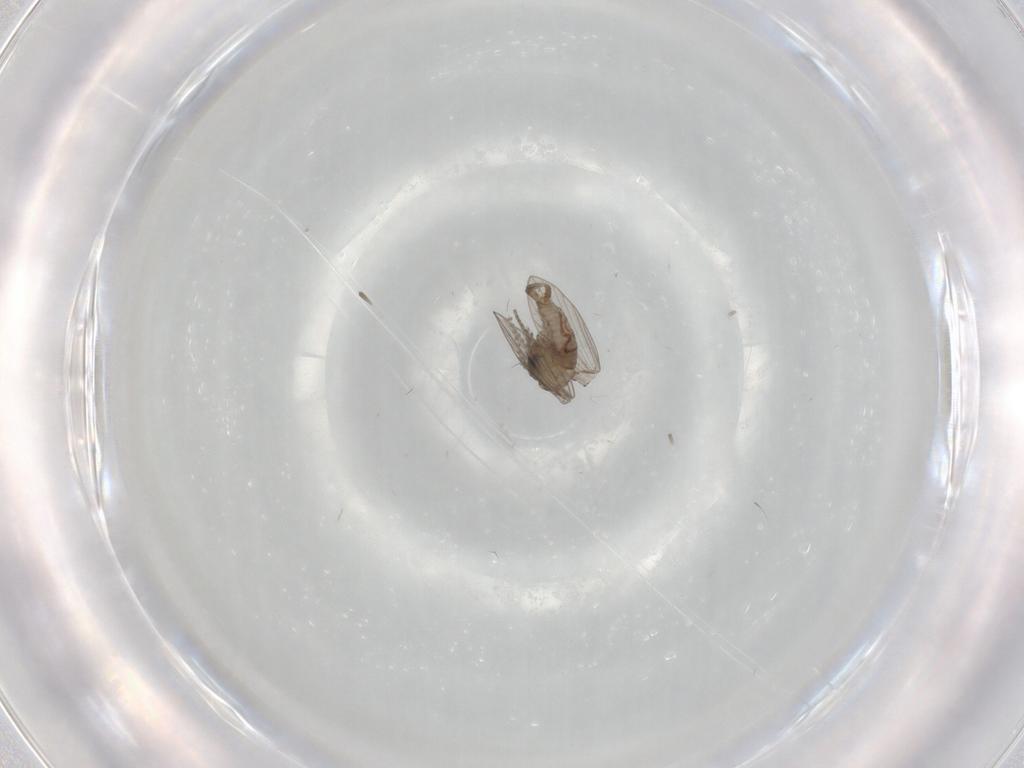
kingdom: Animalia
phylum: Arthropoda
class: Insecta
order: Diptera
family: Psychodidae
